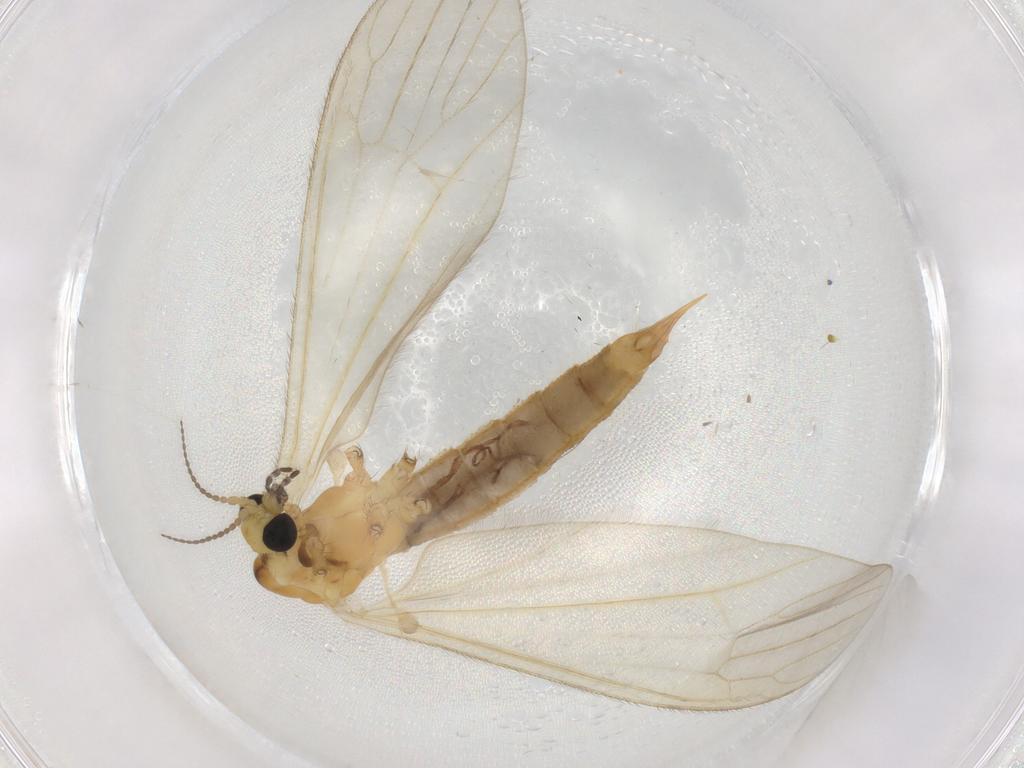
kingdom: Animalia
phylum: Arthropoda
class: Insecta
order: Diptera
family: Limoniidae
